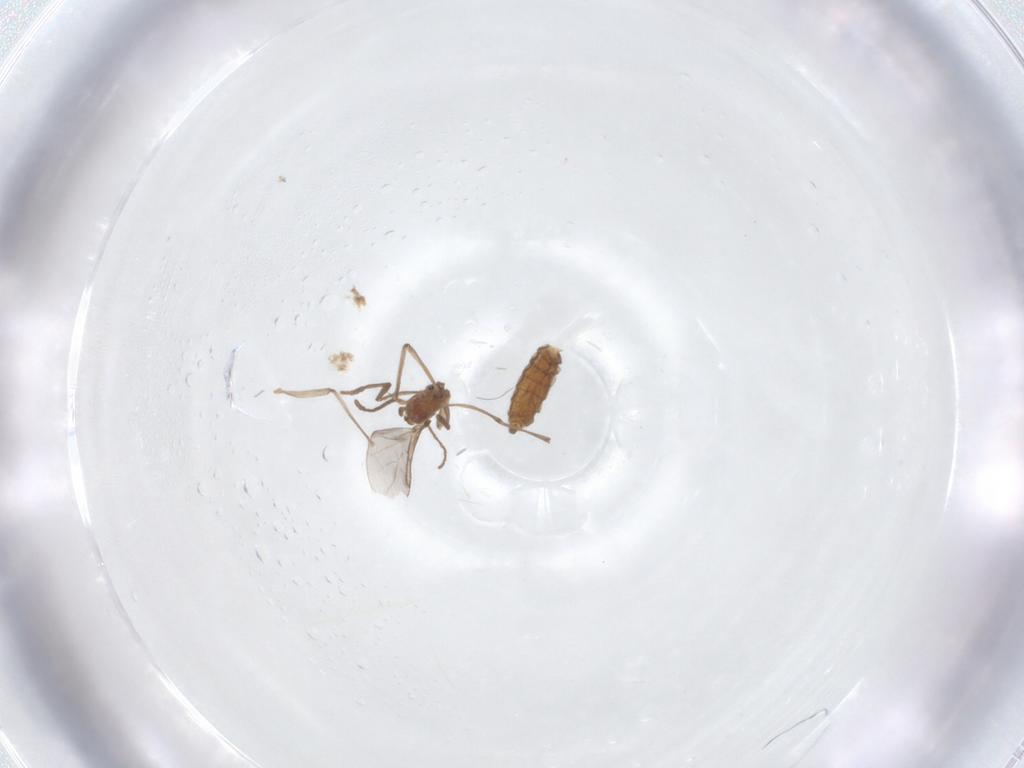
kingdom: Animalia
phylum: Arthropoda
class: Insecta
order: Diptera
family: Cecidomyiidae
